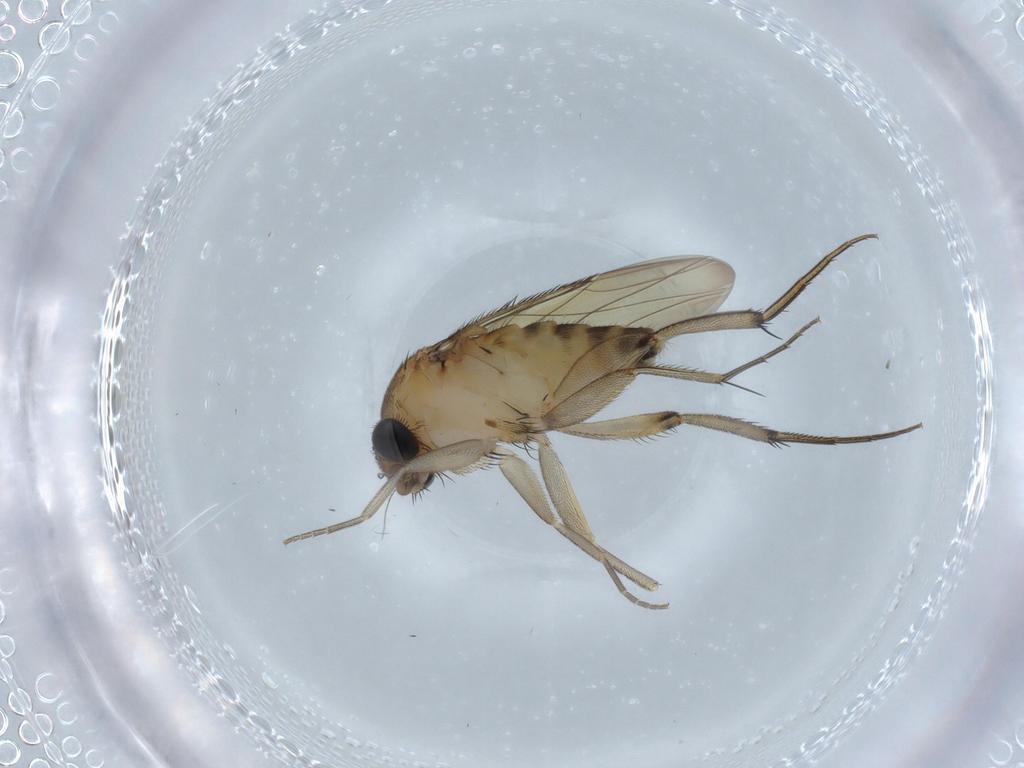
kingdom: Animalia
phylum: Arthropoda
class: Insecta
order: Diptera
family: Phoridae
